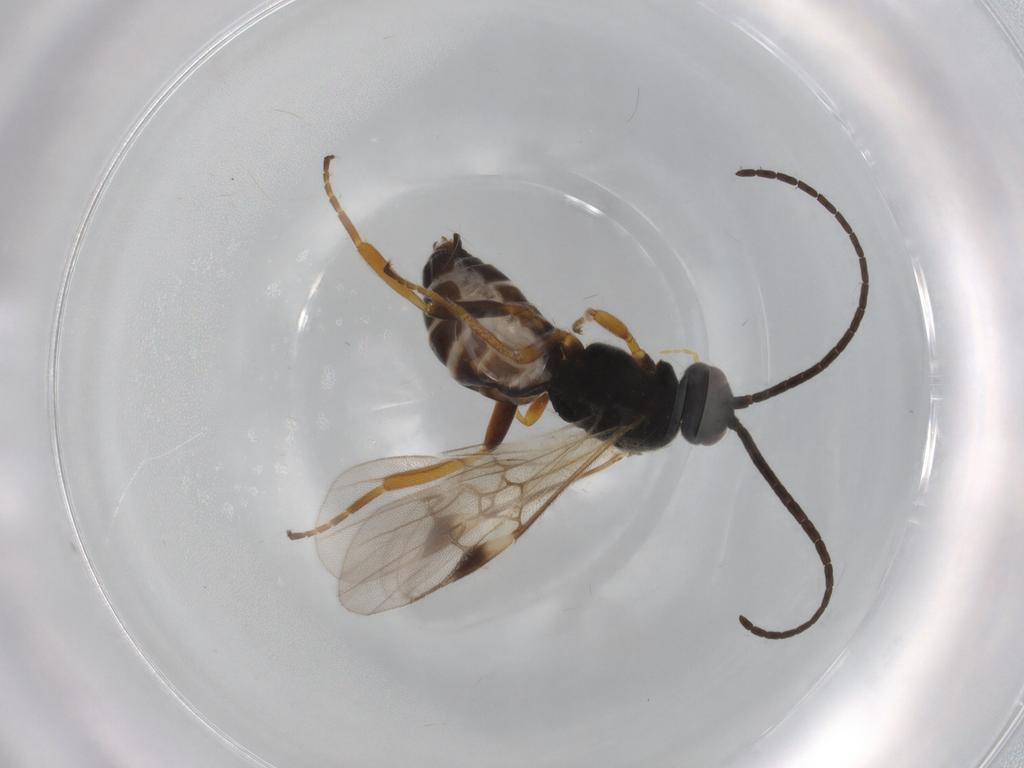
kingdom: Animalia
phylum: Arthropoda
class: Insecta
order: Hymenoptera
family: Braconidae
